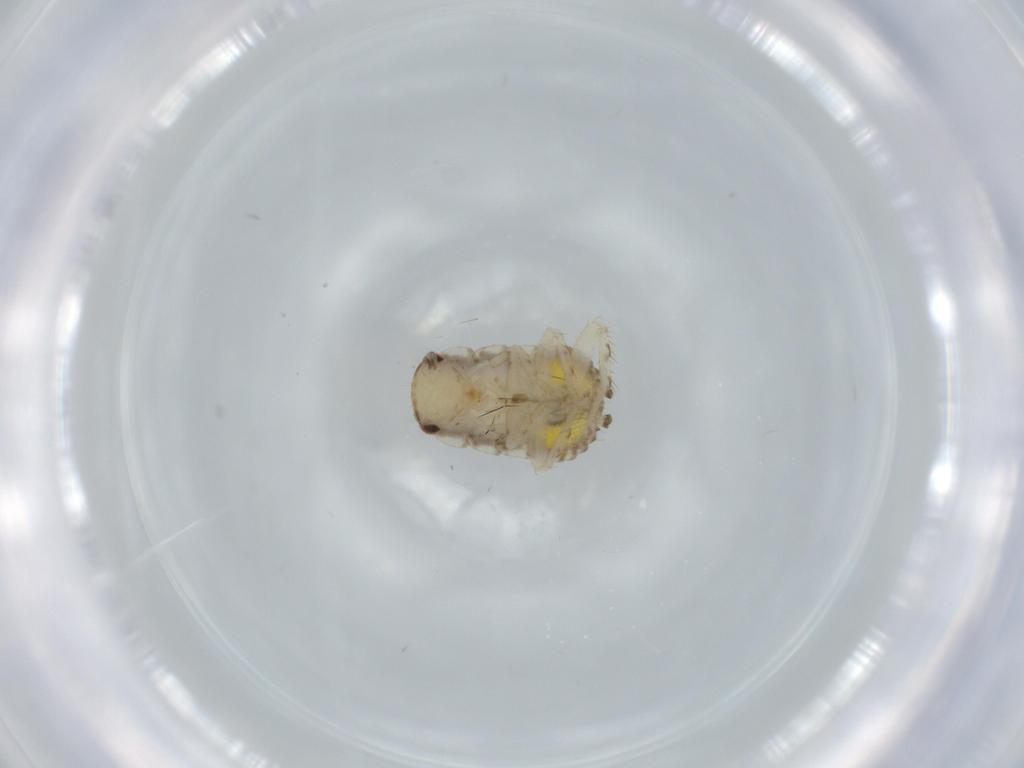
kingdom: Animalia
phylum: Arthropoda
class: Insecta
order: Blattodea
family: Ectobiidae
